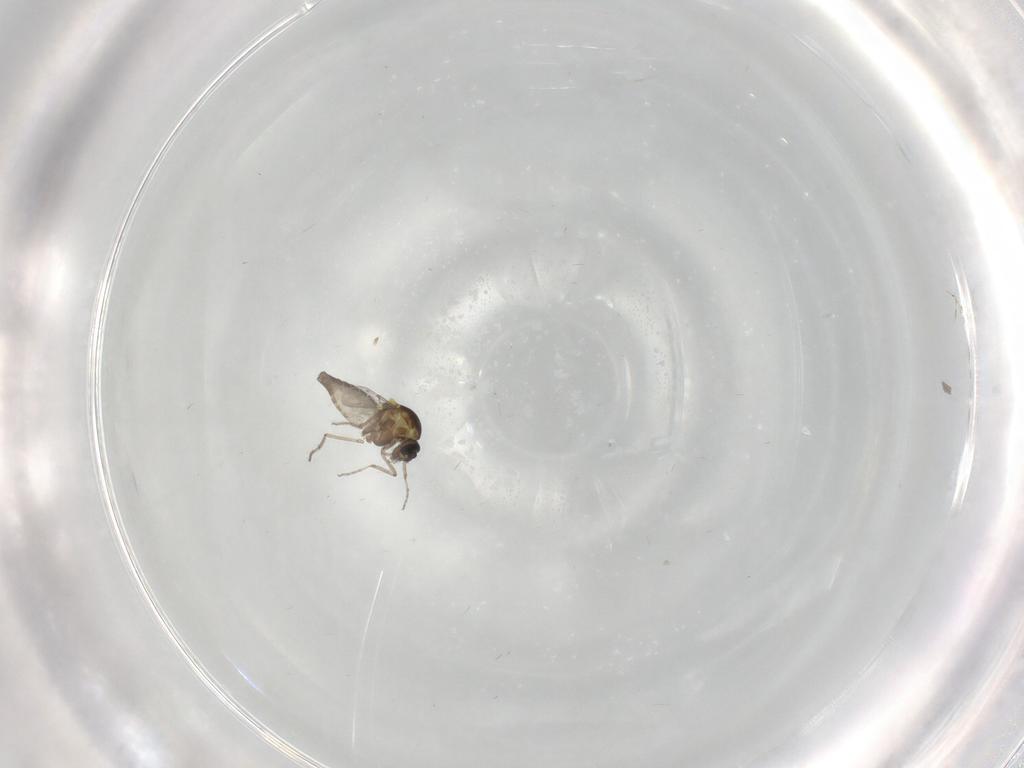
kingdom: Animalia
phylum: Arthropoda
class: Insecta
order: Diptera
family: Ceratopogonidae
